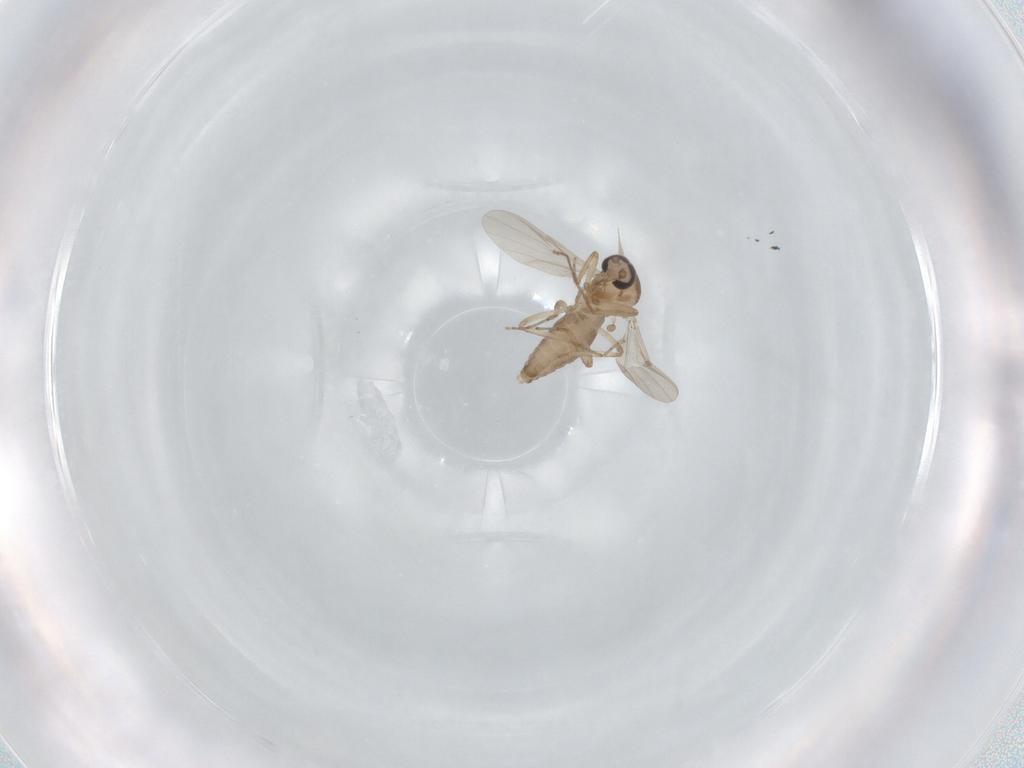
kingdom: Animalia
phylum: Arthropoda
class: Insecta
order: Diptera
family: Ceratopogonidae
